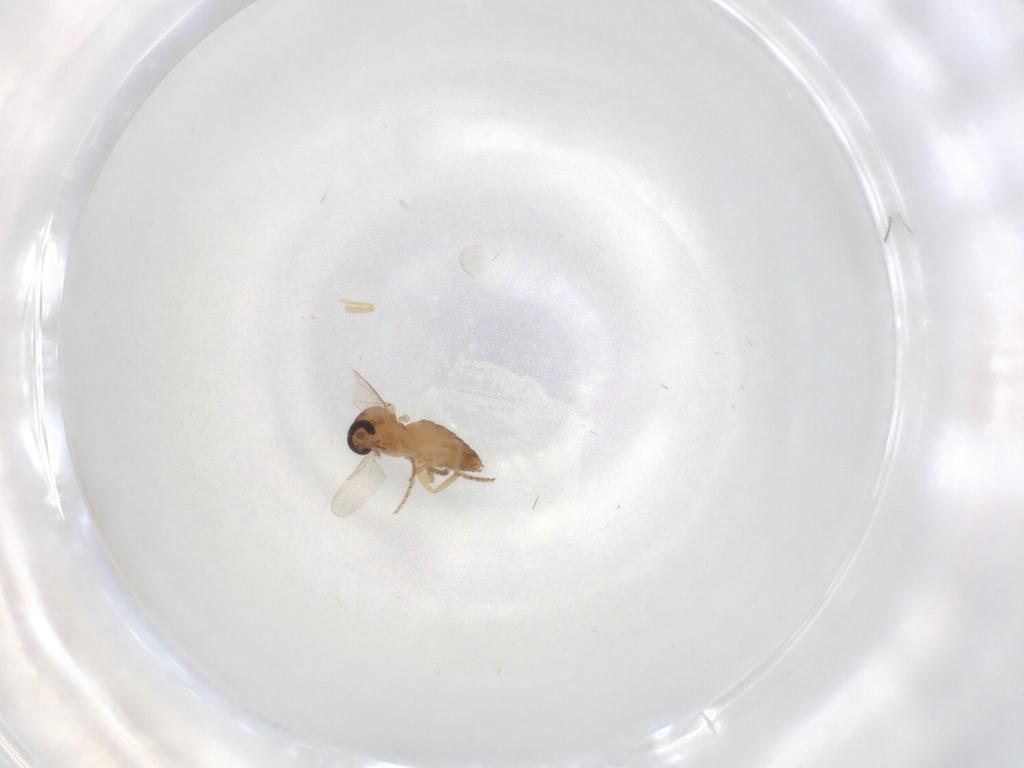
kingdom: Animalia
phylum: Arthropoda
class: Insecta
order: Diptera
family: Ceratopogonidae
